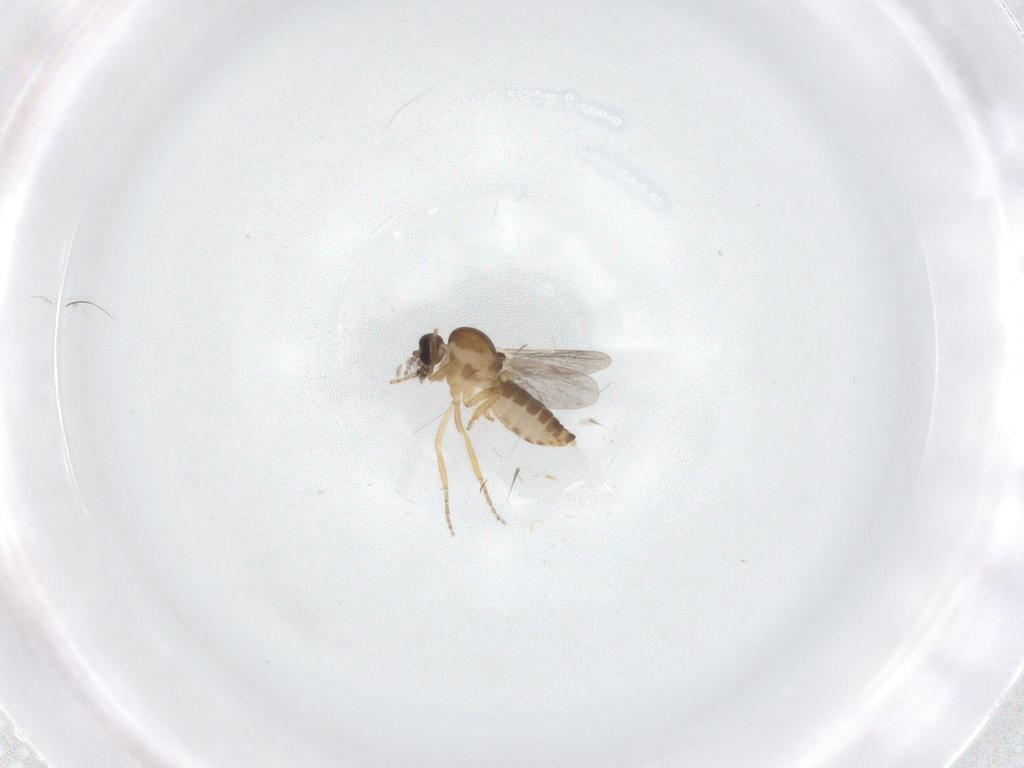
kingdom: Animalia
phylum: Arthropoda
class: Insecta
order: Diptera
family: Ceratopogonidae
